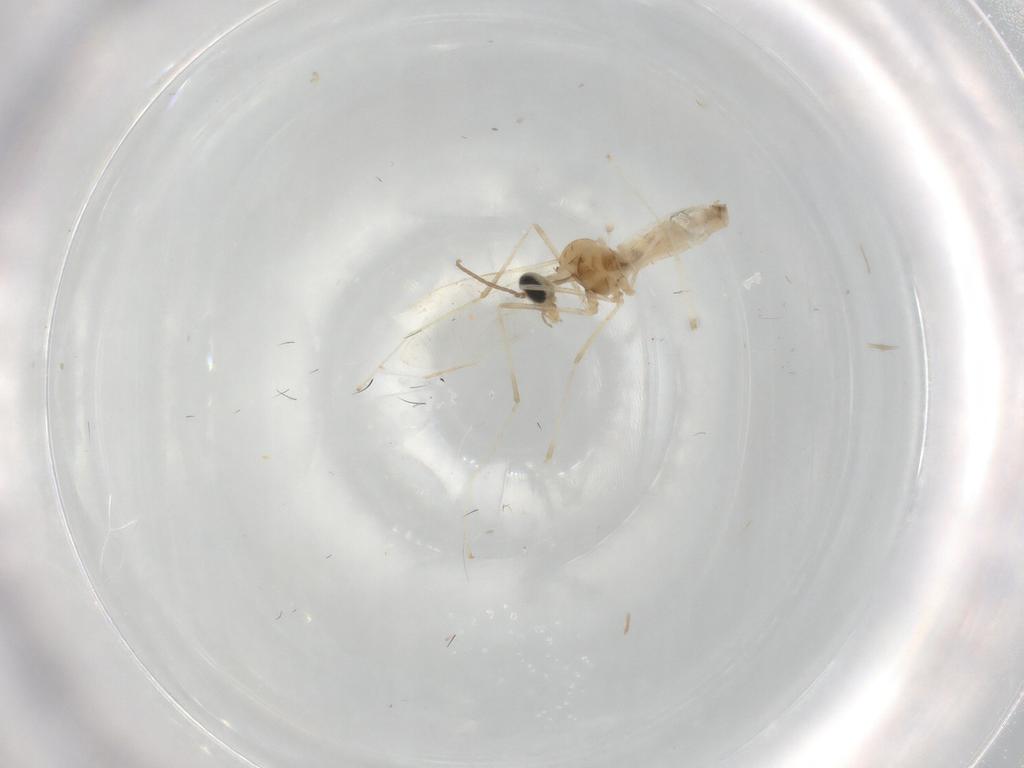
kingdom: Animalia
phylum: Arthropoda
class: Insecta
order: Diptera
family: Cecidomyiidae
